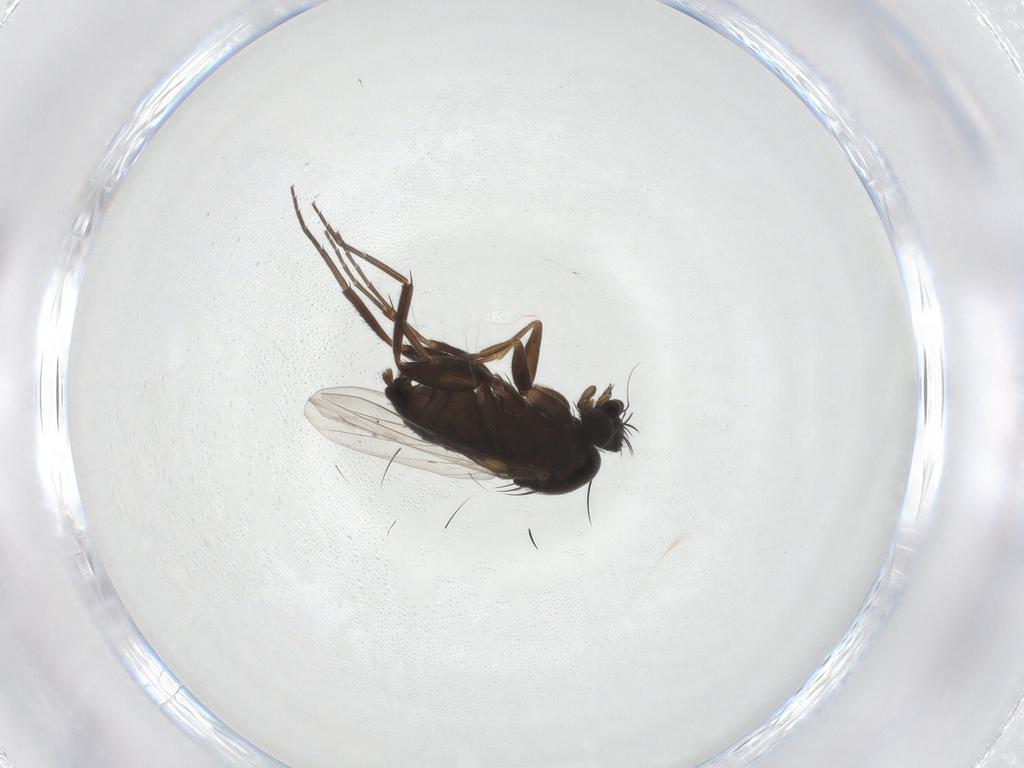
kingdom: Animalia
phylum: Arthropoda
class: Insecta
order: Diptera
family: Phoridae
